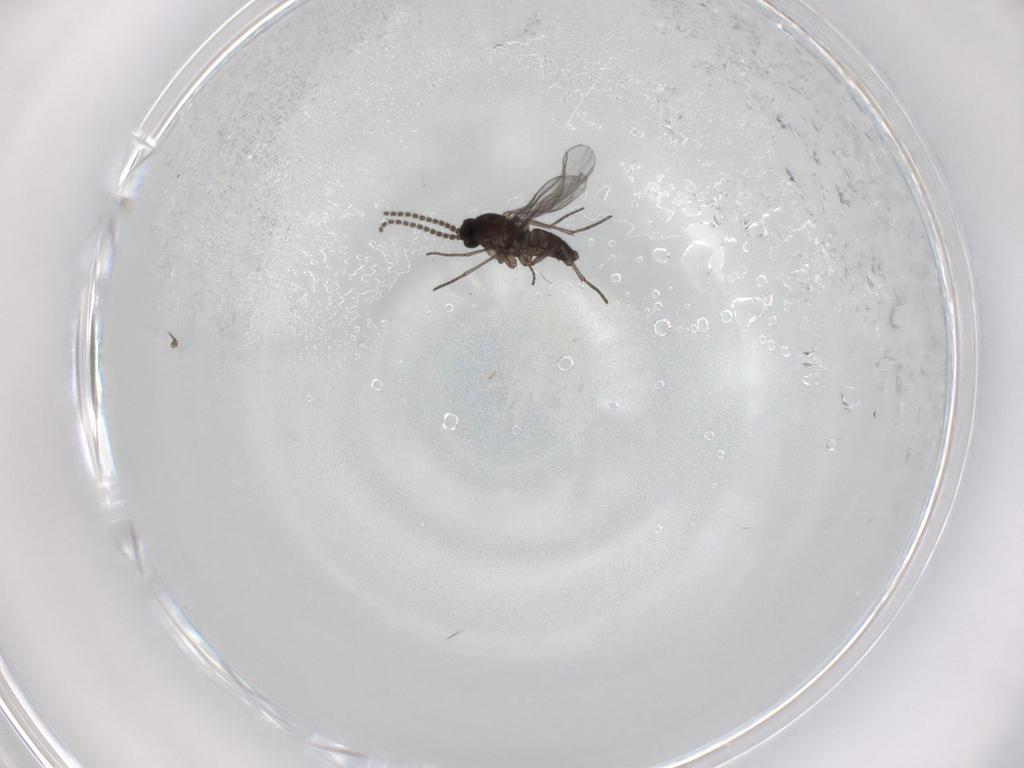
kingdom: Animalia
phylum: Arthropoda
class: Insecta
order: Diptera
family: Sciaridae
